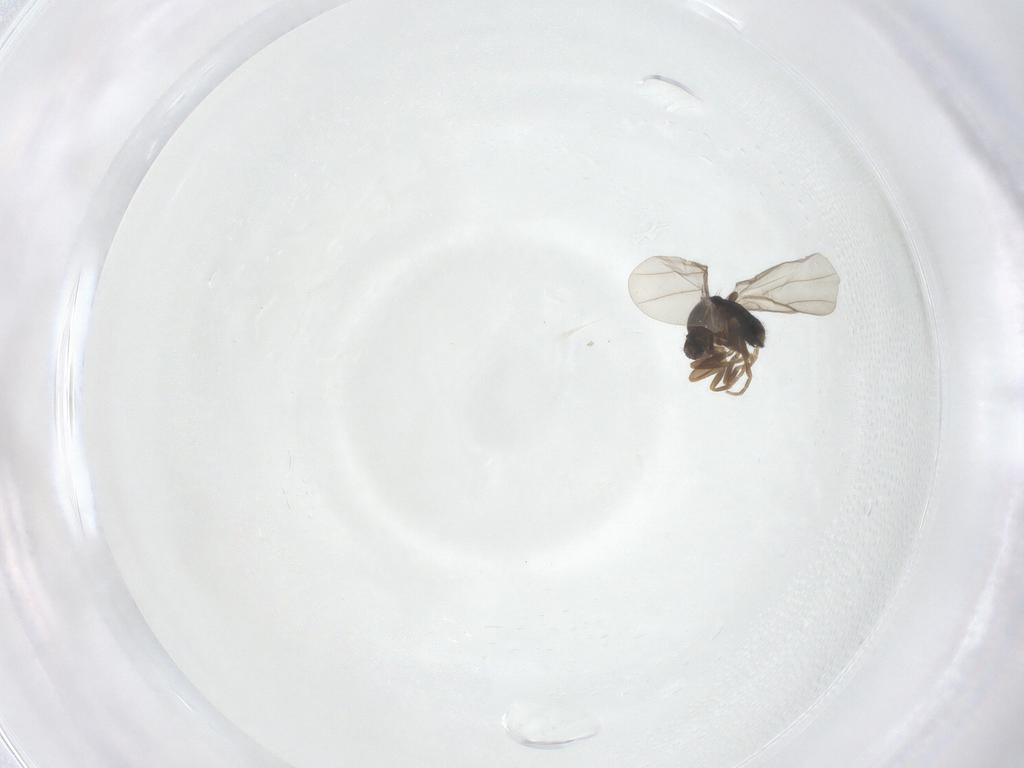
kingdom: Animalia
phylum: Arthropoda
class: Insecta
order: Diptera
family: Phoridae
